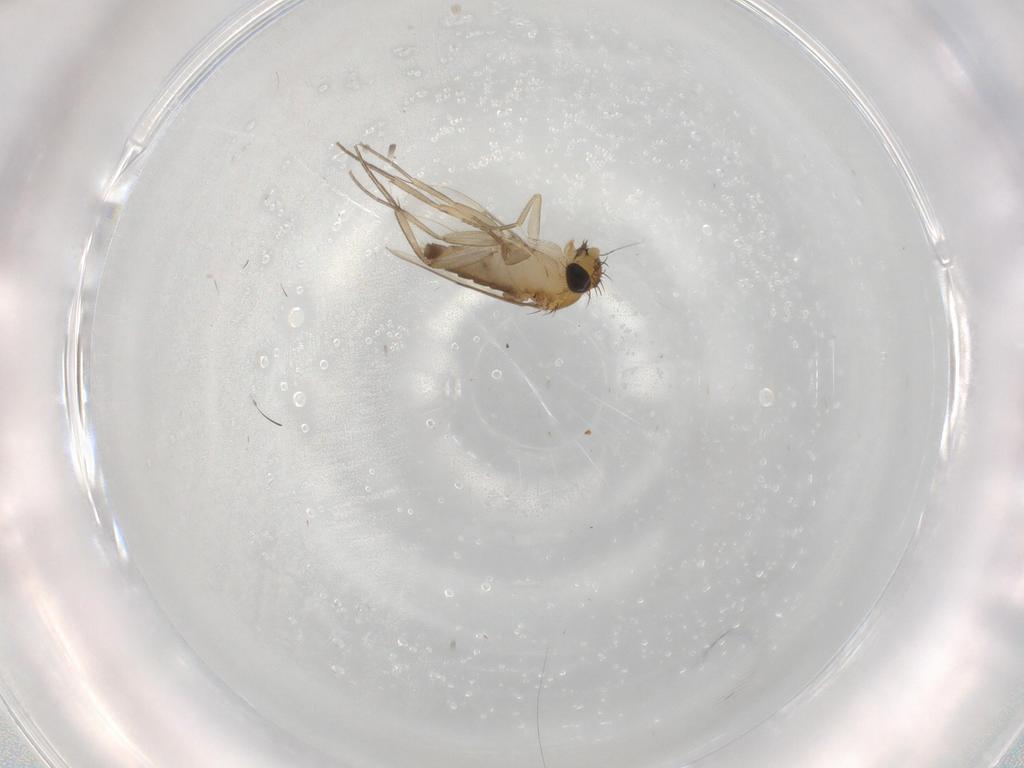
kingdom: Animalia
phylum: Arthropoda
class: Insecta
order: Diptera
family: Phoridae
